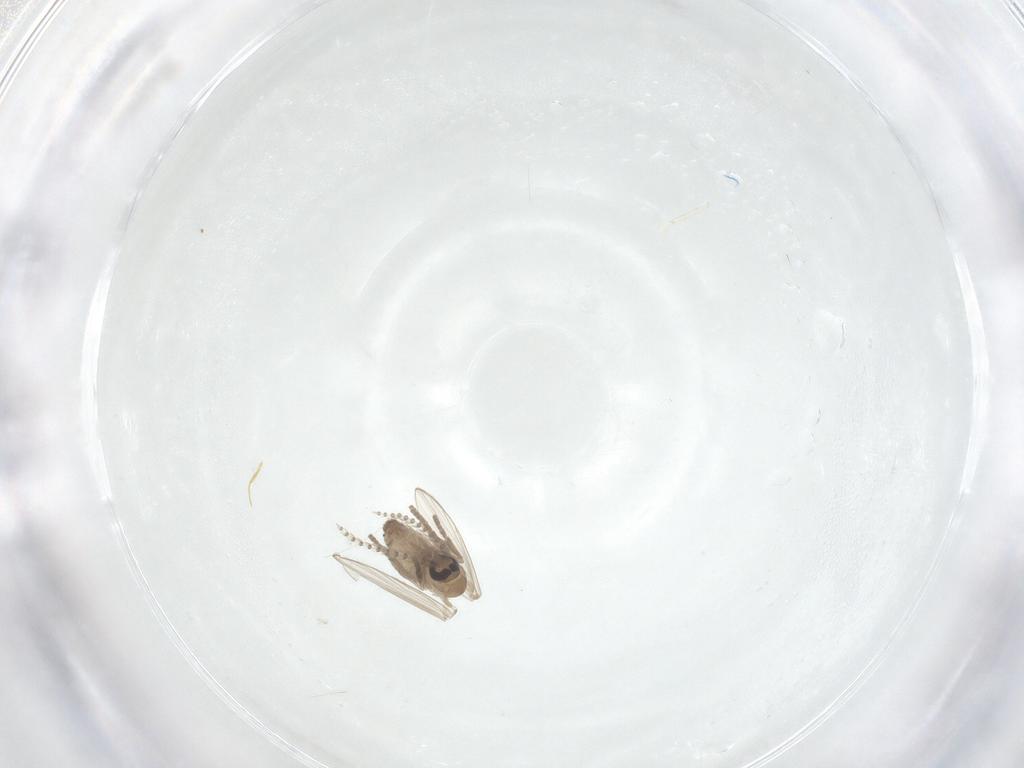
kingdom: Animalia
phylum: Arthropoda
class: Insecta
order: Diptera
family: Psychodidae
